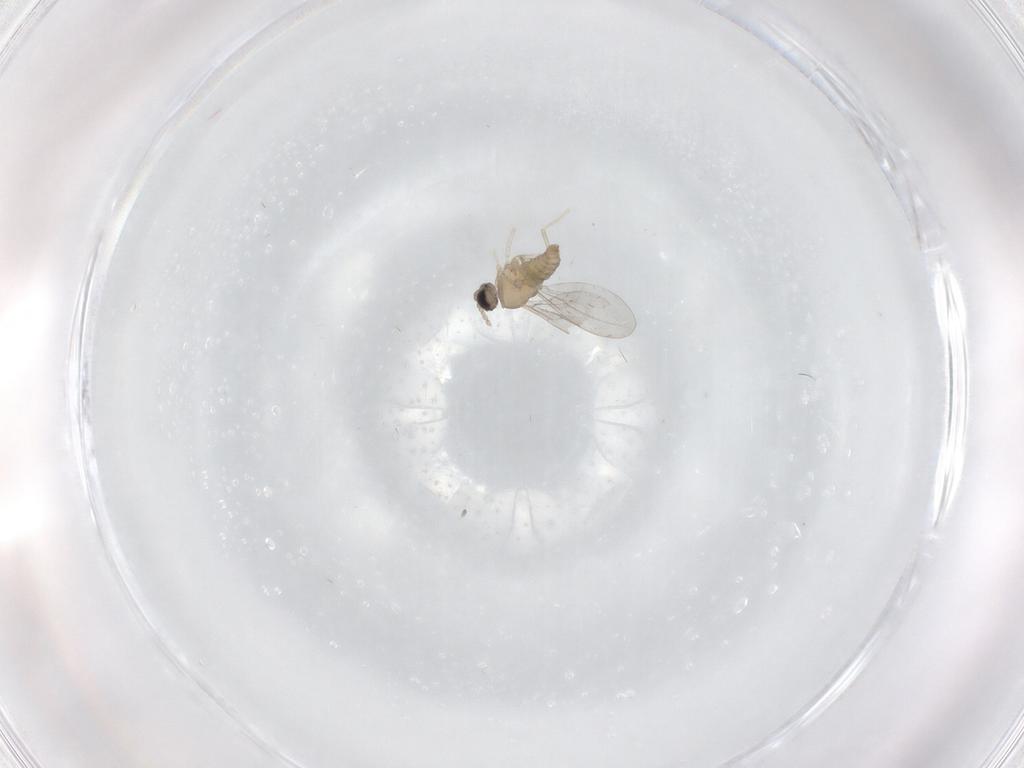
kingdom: Animalia
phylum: Arthropoda
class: Insecta
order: Diptera
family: Cecidomyiidae
